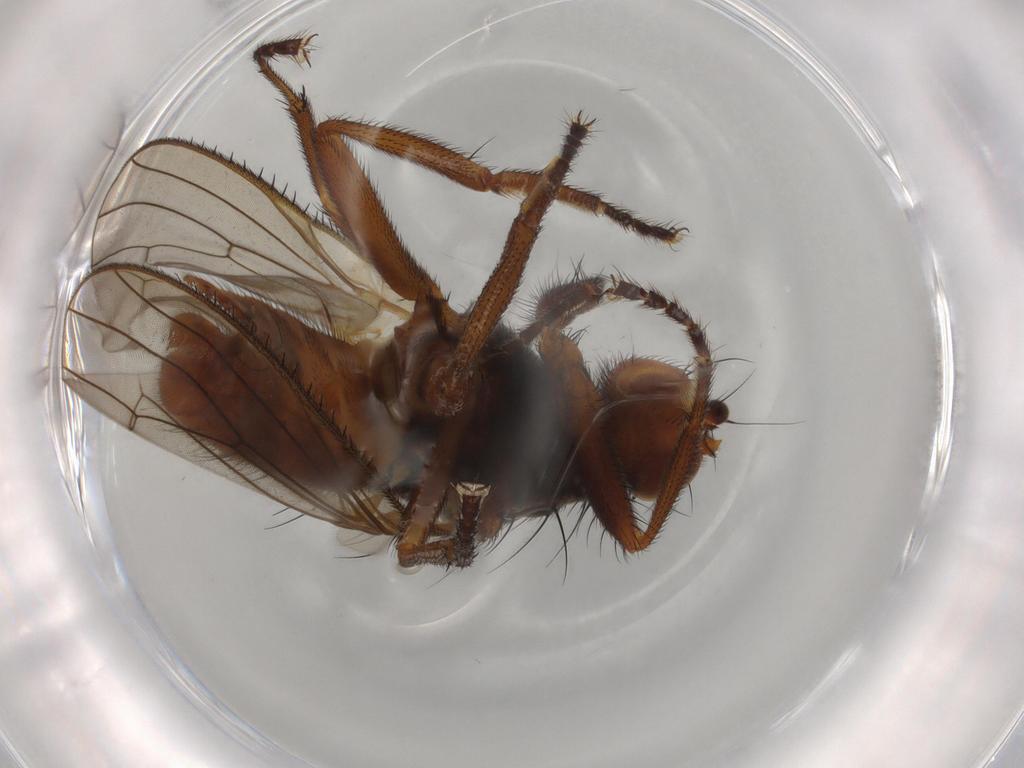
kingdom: Animalia
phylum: Arthropoda
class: Insecta
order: Diptera
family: Heleomyzidae
